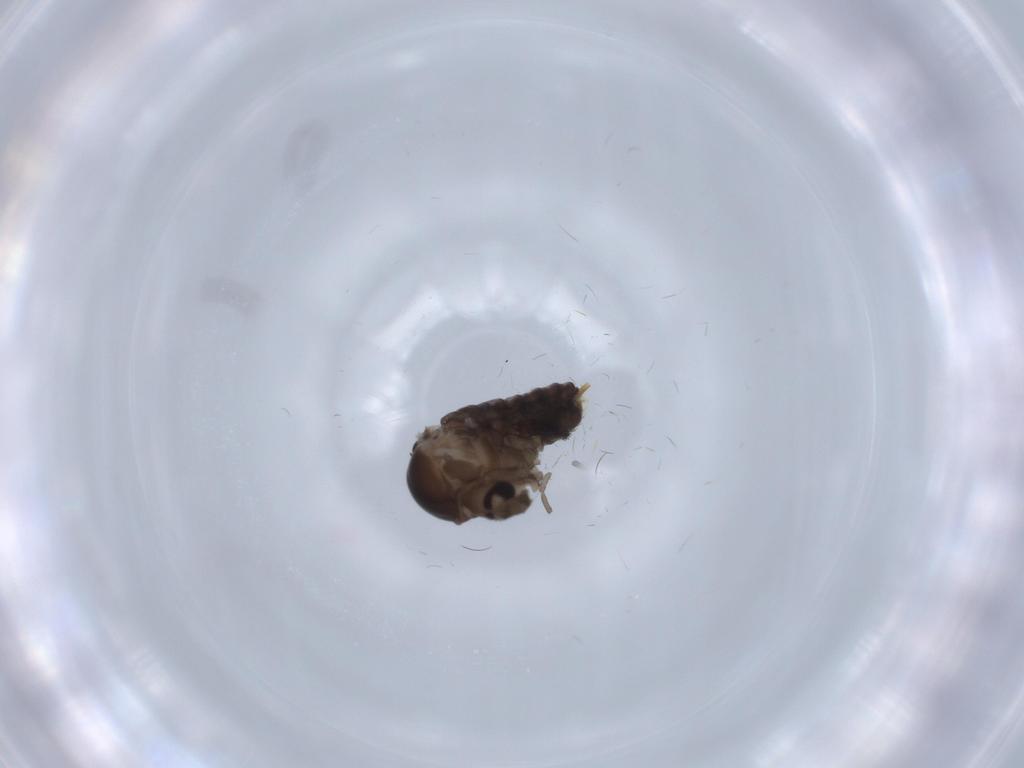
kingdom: Animalia
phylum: Arthropoda
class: Insecta
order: Diptera
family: Psychodidae
